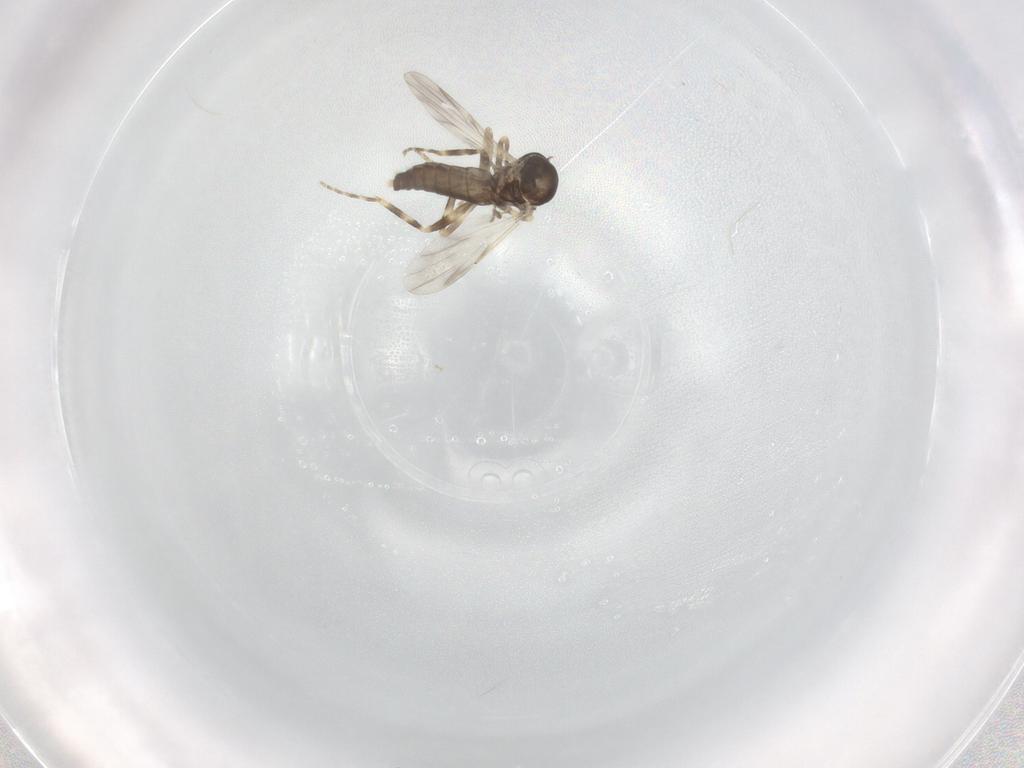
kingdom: Animalia
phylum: Arthropoda
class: Insecta
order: Diptera
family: Ceratopogonidae
